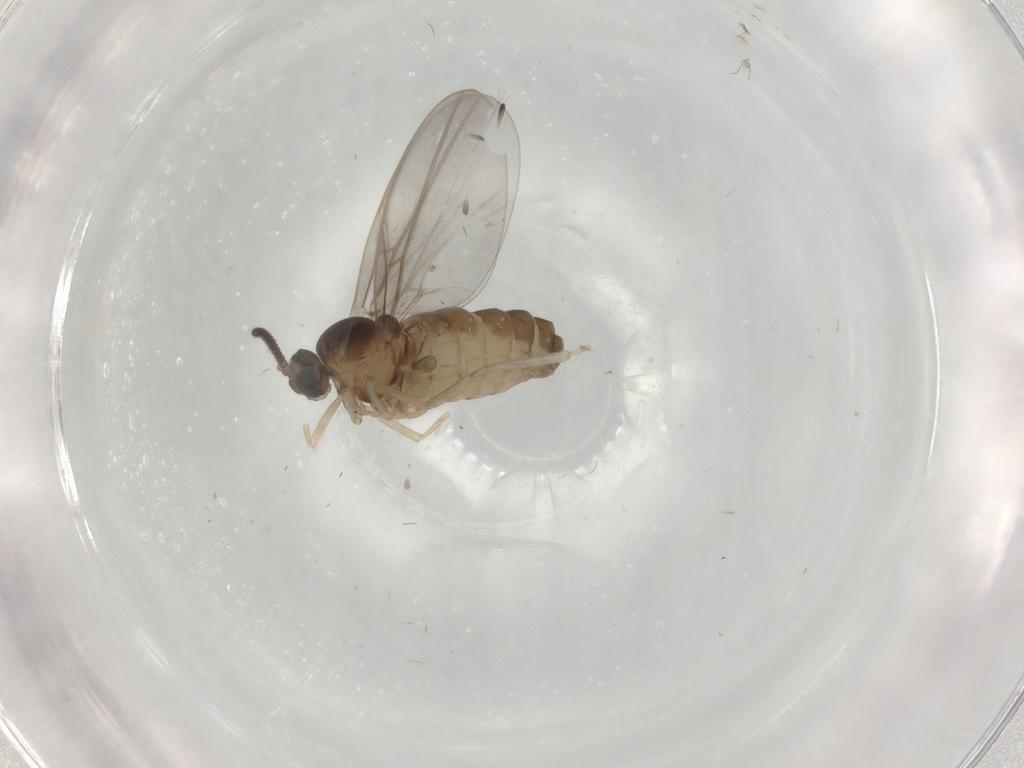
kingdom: Animalia
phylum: Arthropoda
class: Insecta
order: Diptera
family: Cecidomyiidae
